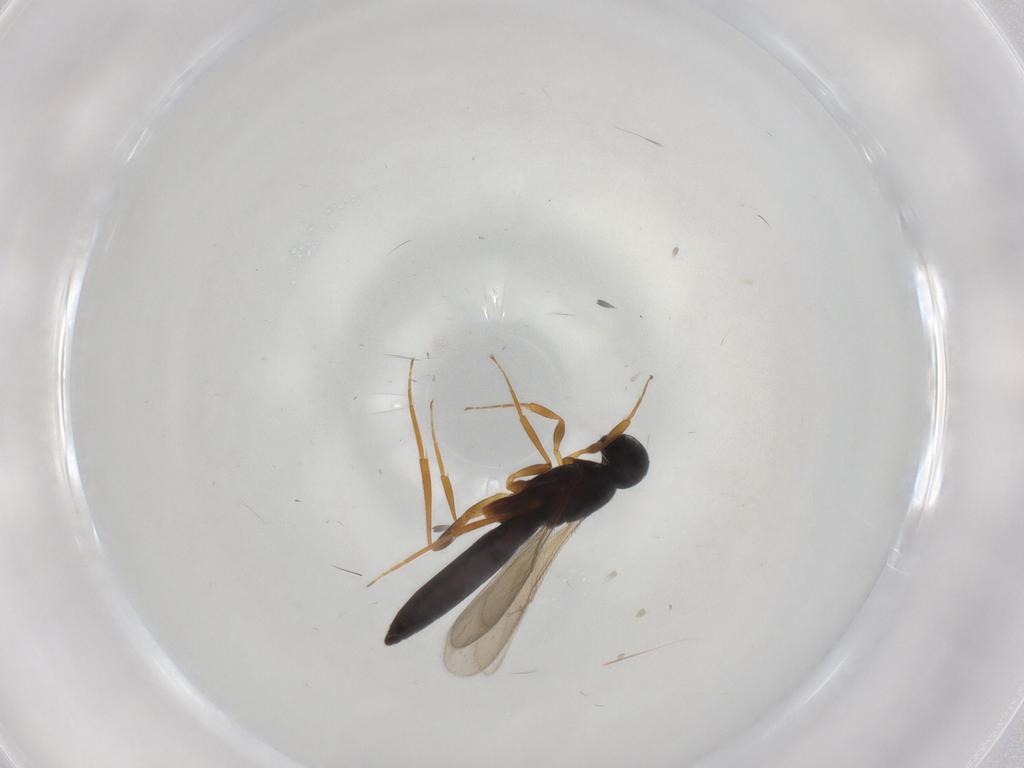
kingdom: Animalia
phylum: Arthropoda
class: Insecta
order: Hymenoptera
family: Scelionidae
